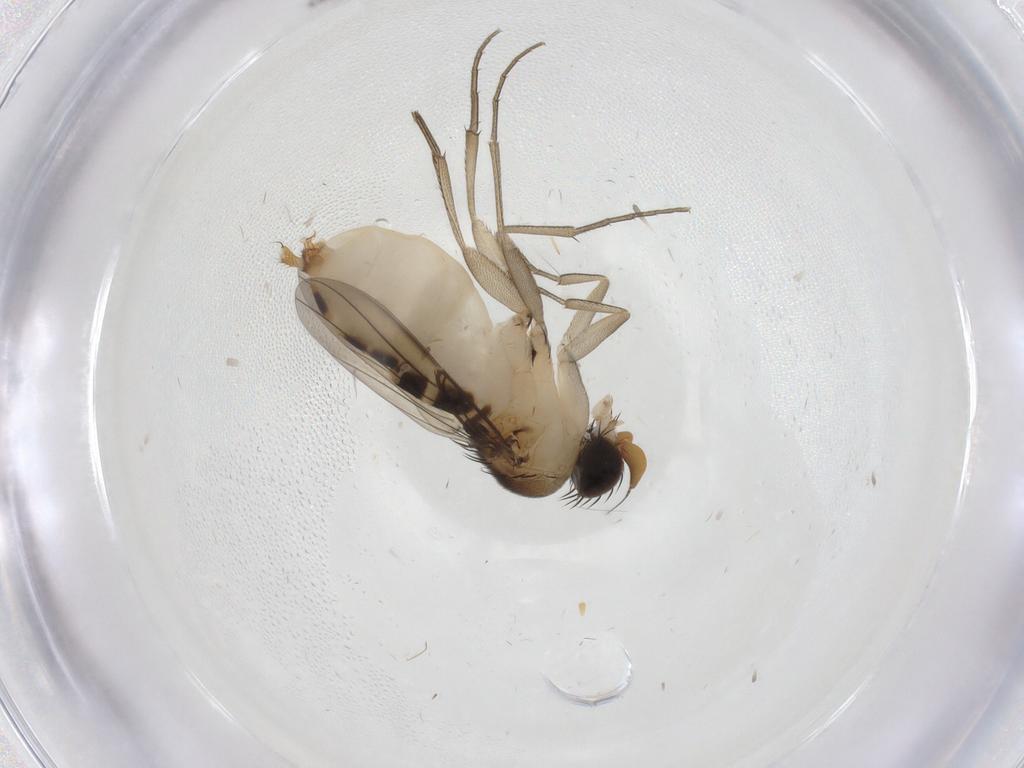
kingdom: Animalia
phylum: Arthropoda
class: Insecta
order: Diptera
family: Phoridae
